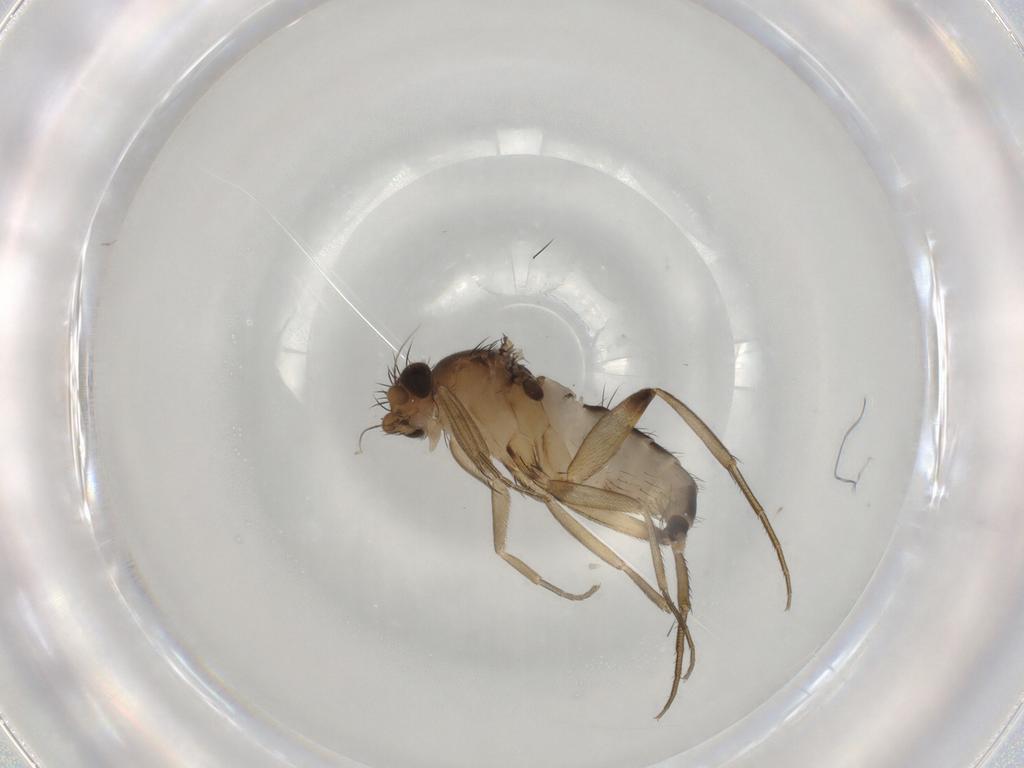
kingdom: Animalia
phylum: Arthropoda
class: Insecta
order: Diptera
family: Phoridae
